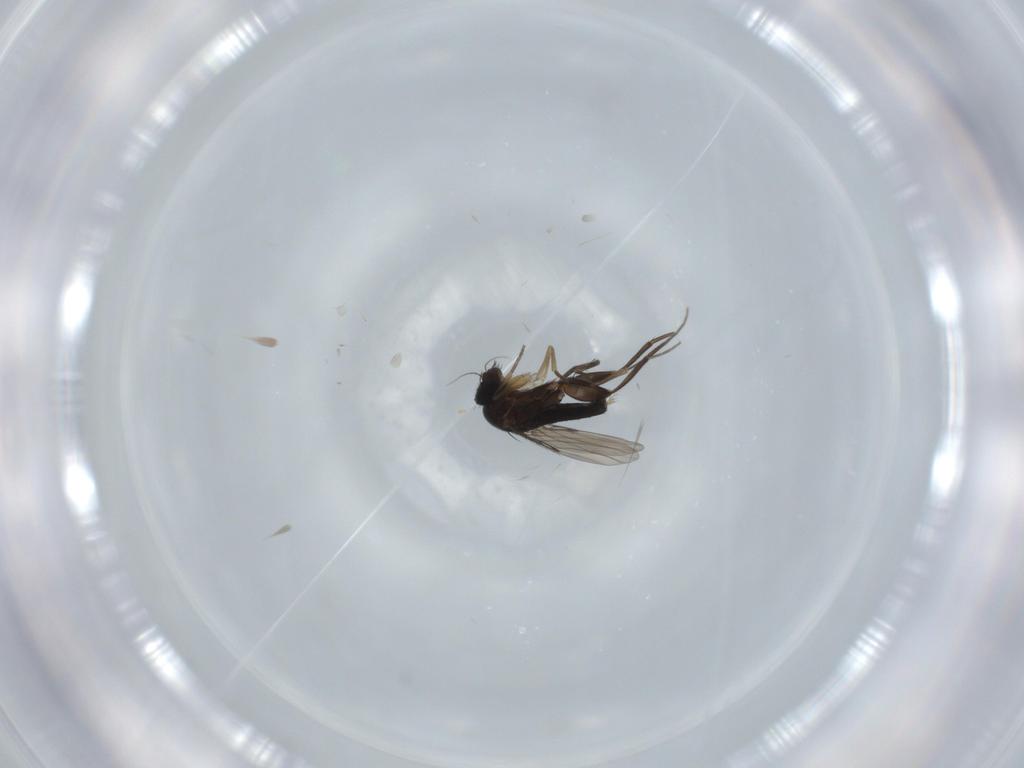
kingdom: Animalia
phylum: Arthropoda
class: Insecta
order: Diptera
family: Phoridae
